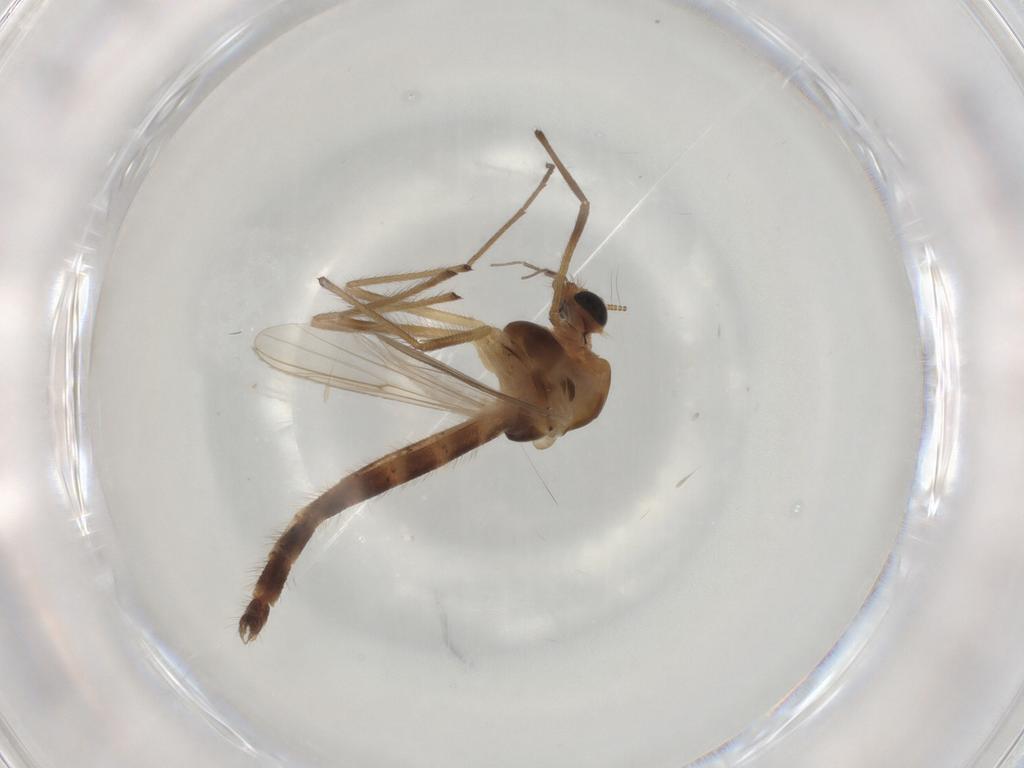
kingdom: Animalia
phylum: Arthropoda
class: Insecta
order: Diptera
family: Chironomidae
